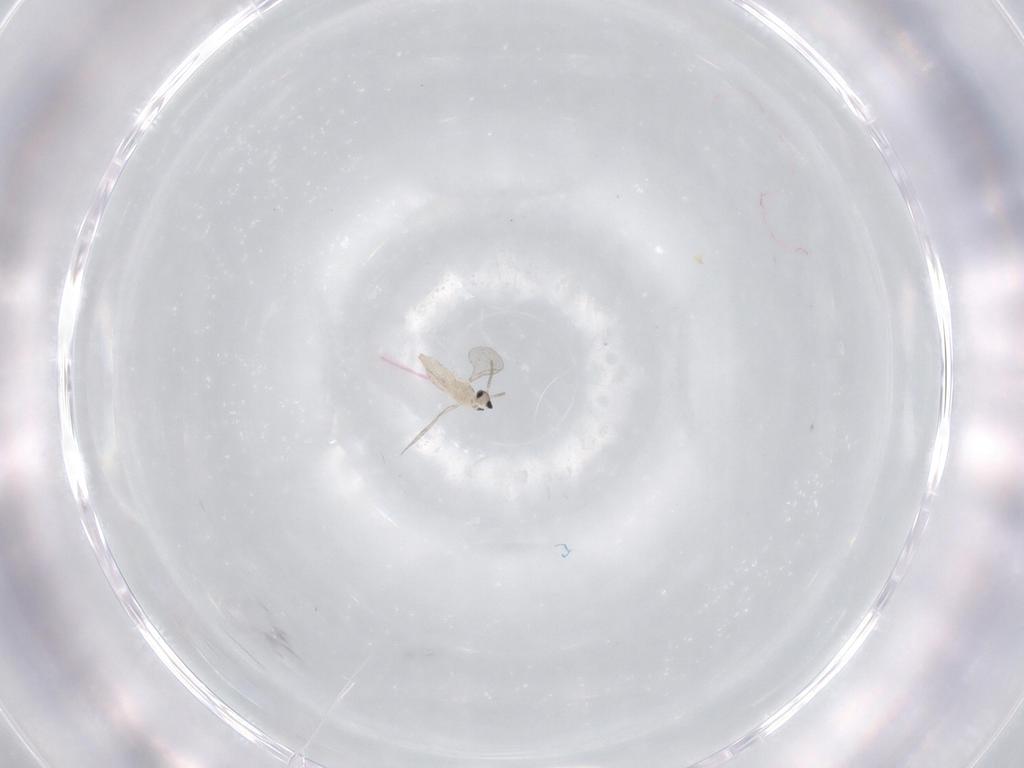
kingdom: Animalia
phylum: Arthropoda
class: Insecta
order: Diptera
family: Cecidomyiidae
